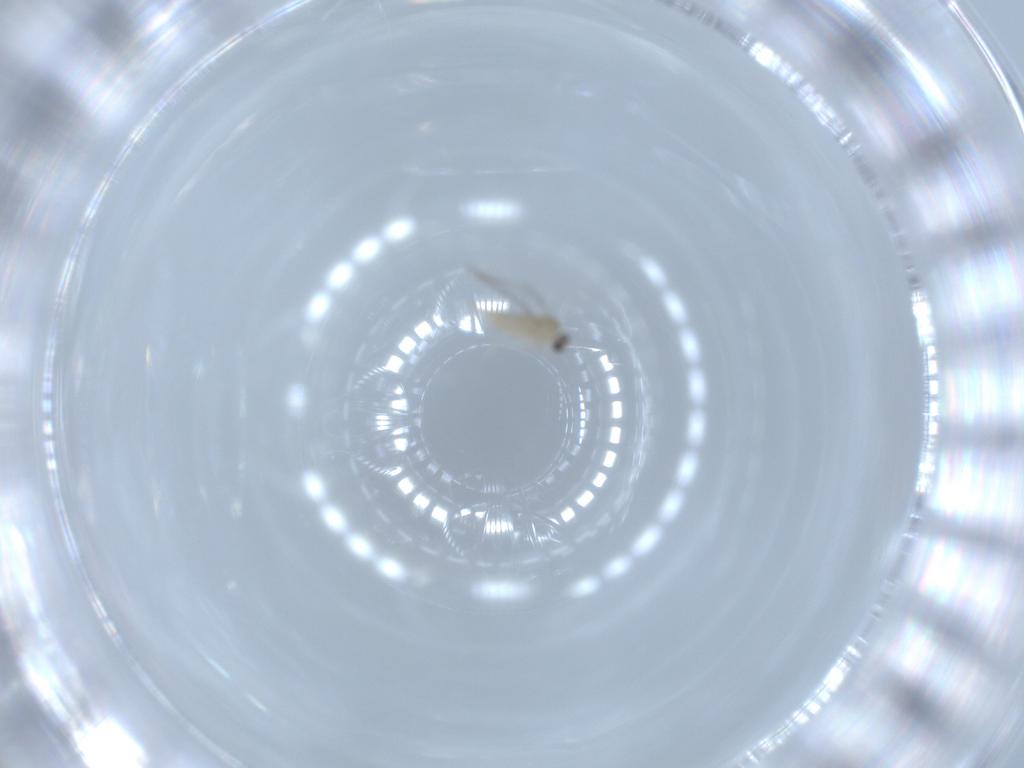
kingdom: Animalia
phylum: Arthropoda
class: Insecta
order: Diptera
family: Cecidomyiidae
